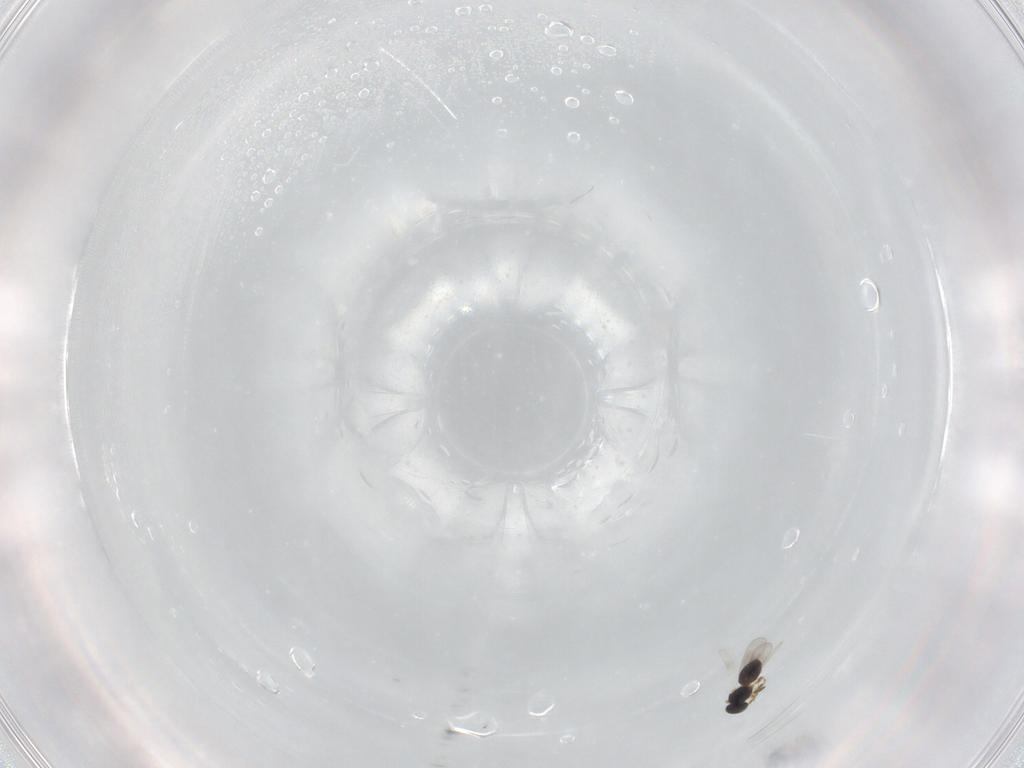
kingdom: Animalia
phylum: Arthropoda
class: Insecta
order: Hymenoptera
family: Platygastridae
